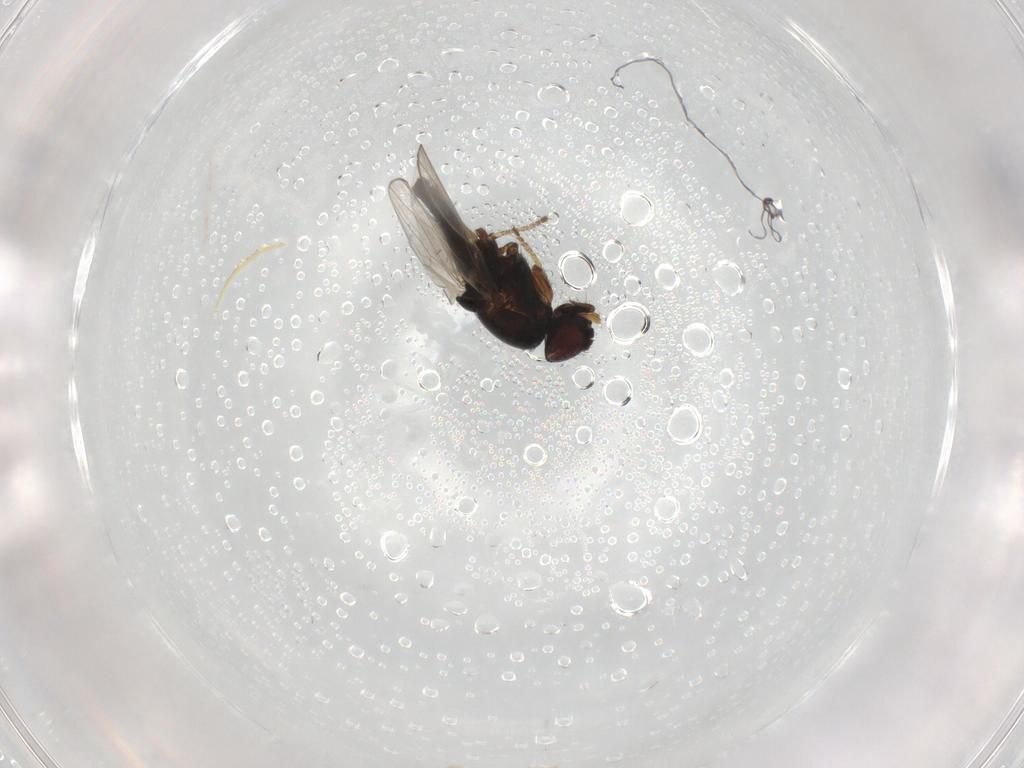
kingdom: Animalia
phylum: Arthropoda
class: Insecta
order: Diptera
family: Milichiidae
